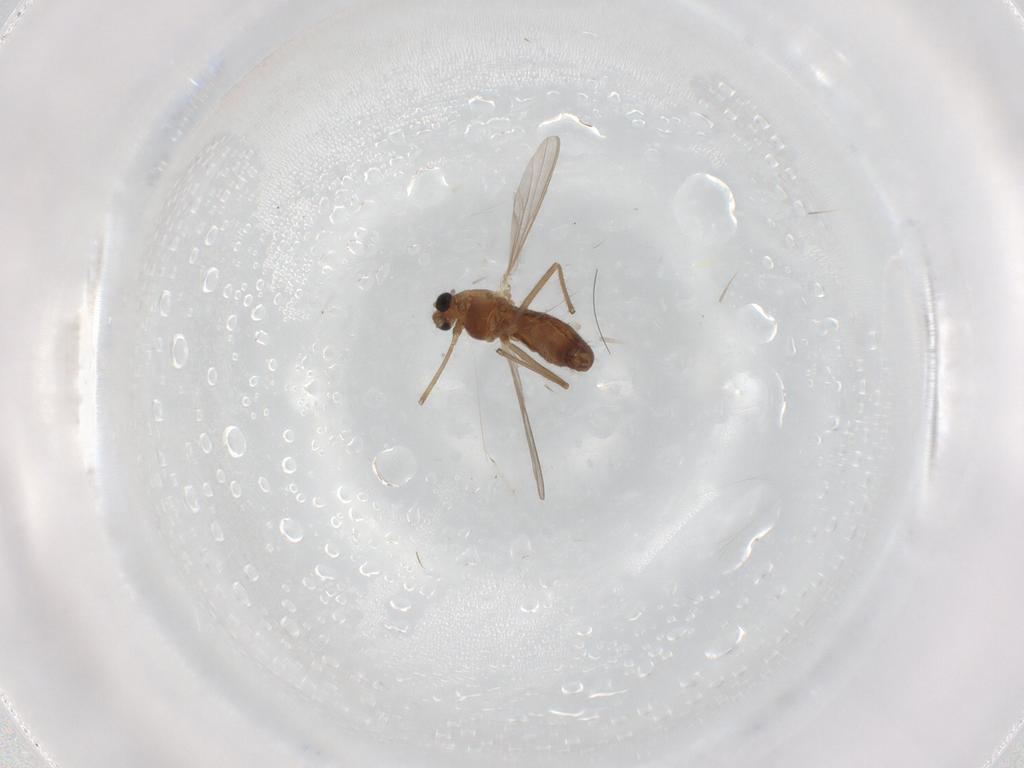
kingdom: Animalia
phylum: Arthropoda
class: Insecta
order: Diptera
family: Chironomidae
